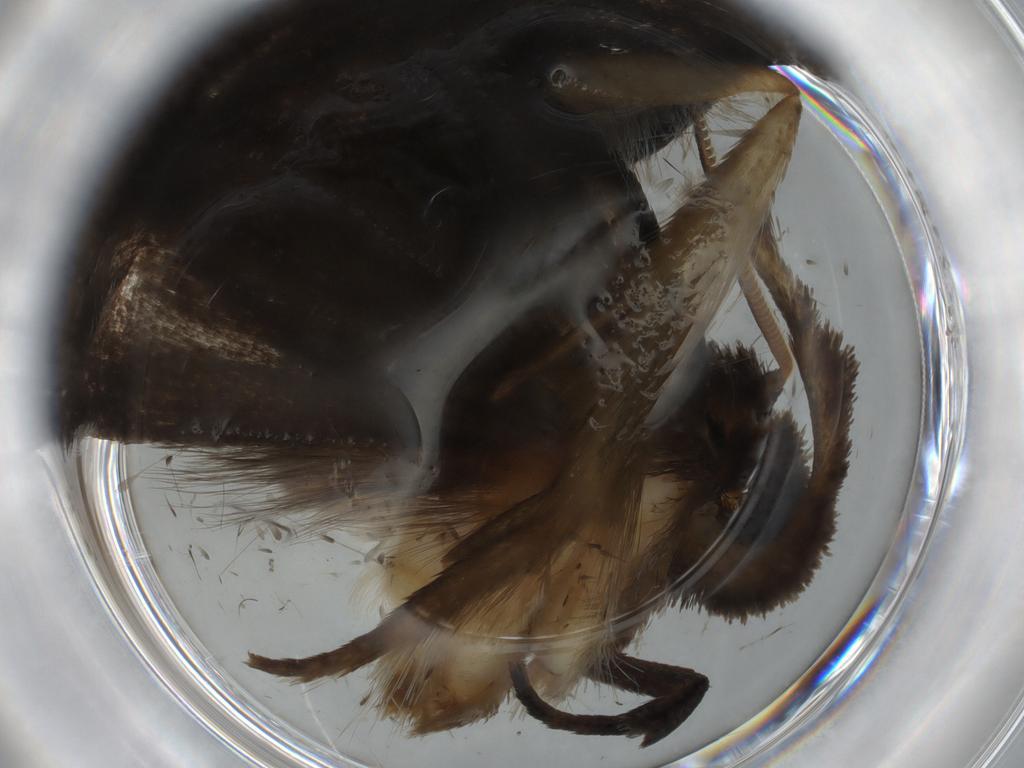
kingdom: Animalia
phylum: Arthropoda
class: Insecta
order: Lepidoptera
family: Tineidae
